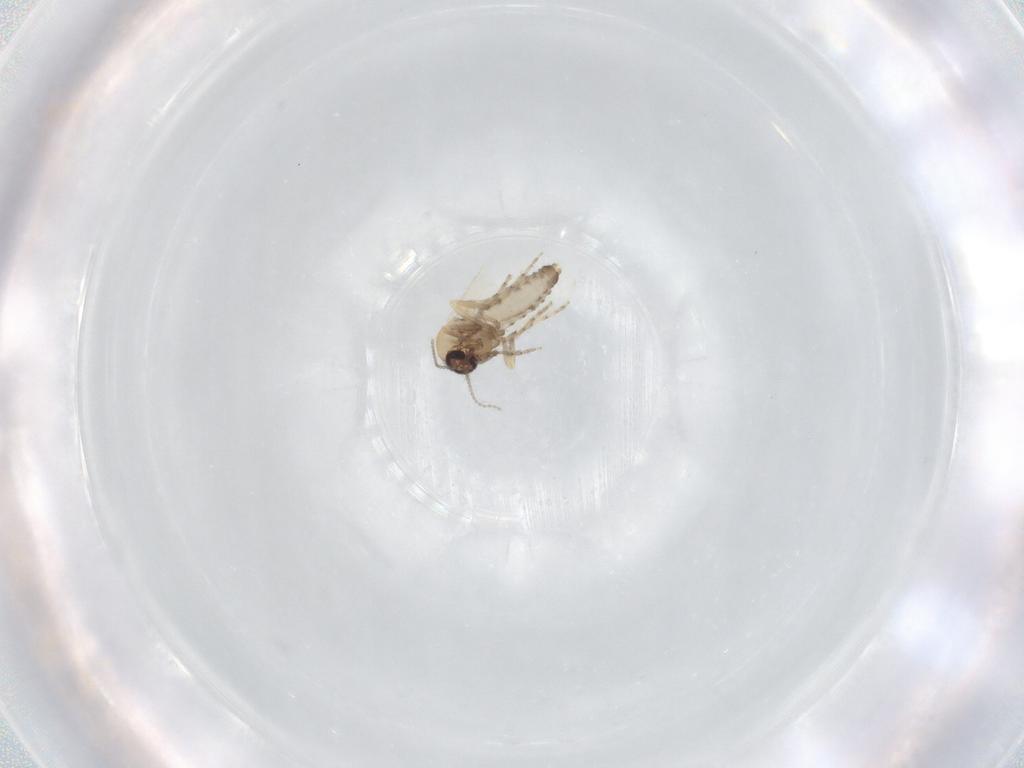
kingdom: Animalia
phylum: Arthropoda
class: Insecta
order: Diptera
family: Ceratopogonidae
